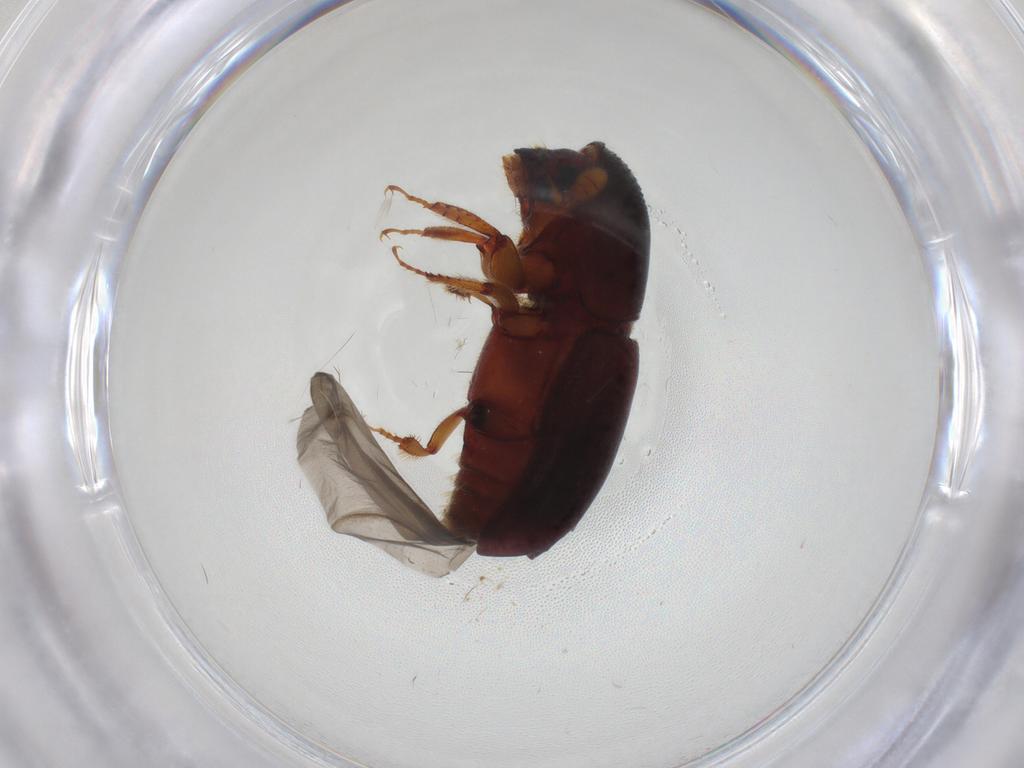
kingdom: Animalia
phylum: Arthropoda
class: Insecta
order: Coleoptera
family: Curculionidae
